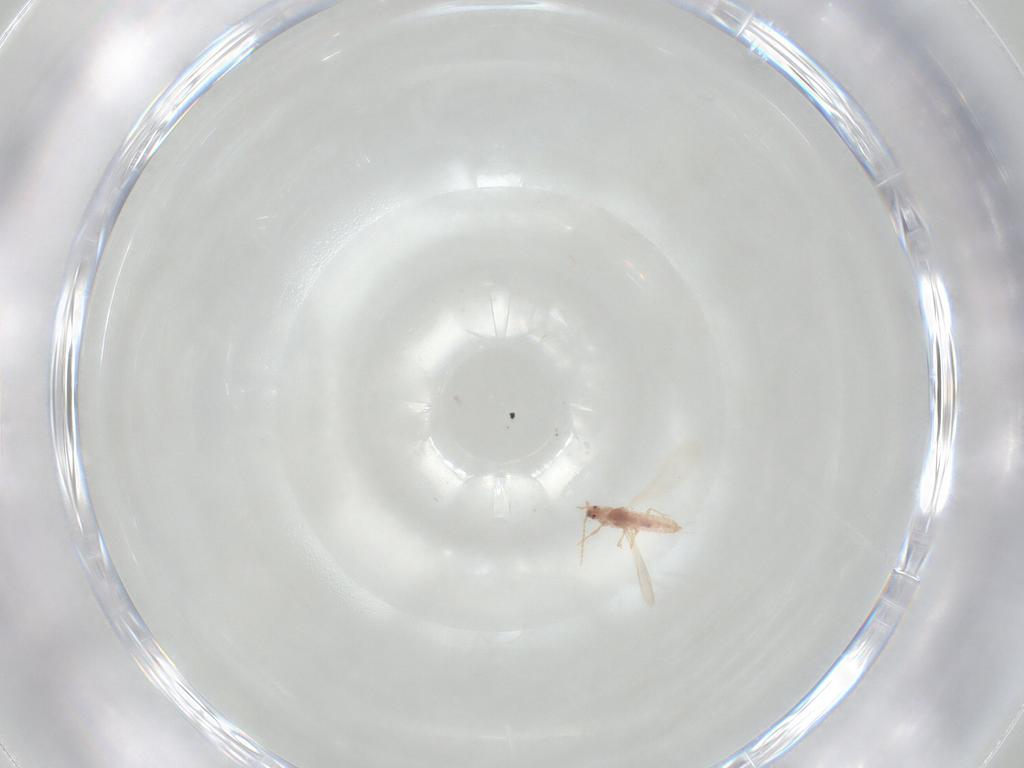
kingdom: Animalia
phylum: Arthropoda
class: Insecta
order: Hemiptera
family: Pseudococcidae
